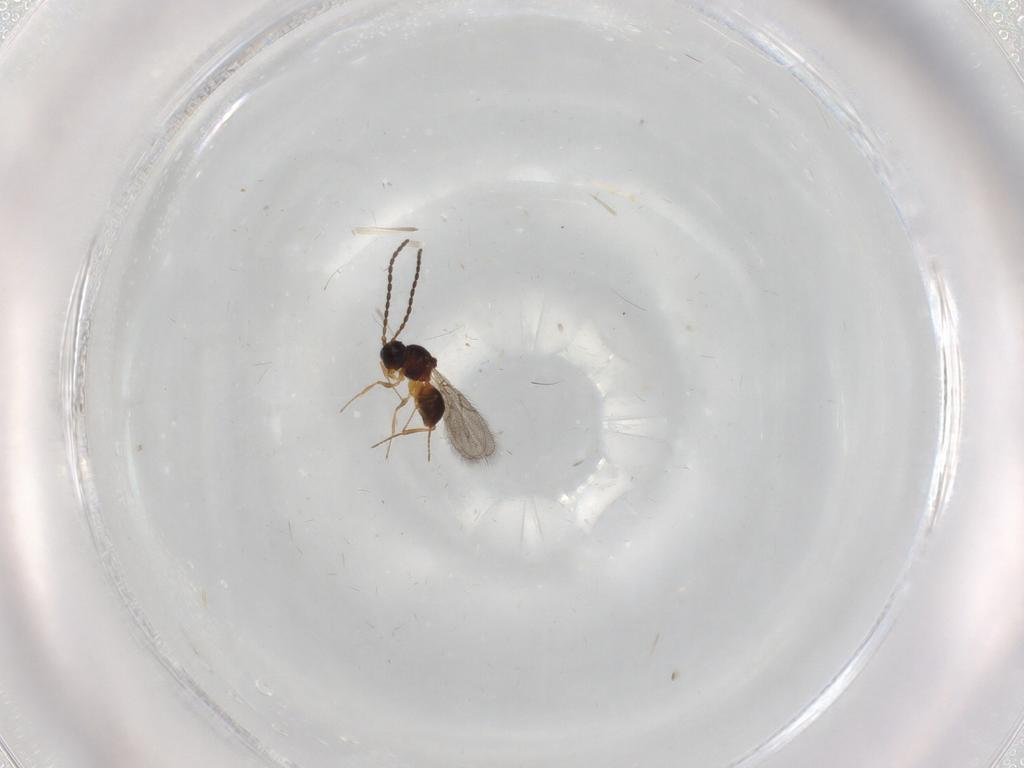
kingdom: Animalia
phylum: Arthropoda
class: Insecta
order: Hymenoptera
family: Figitidae
